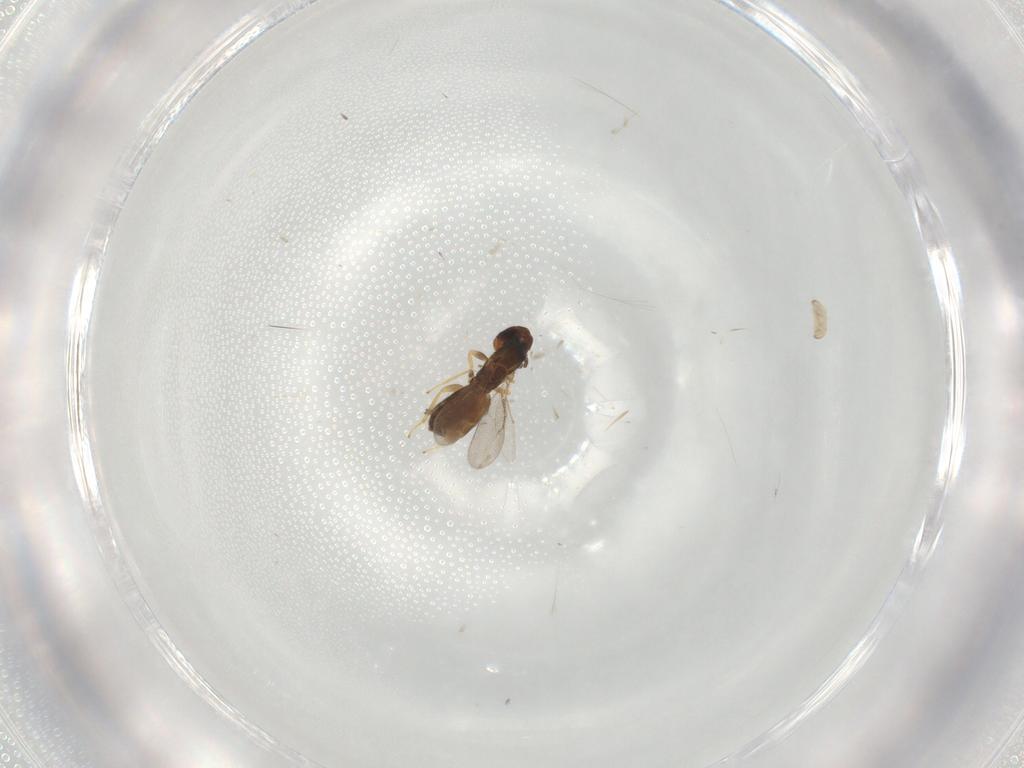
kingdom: Animalia
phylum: Arthropoda
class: Insecta
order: Hymenoptera
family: Eulophidae
